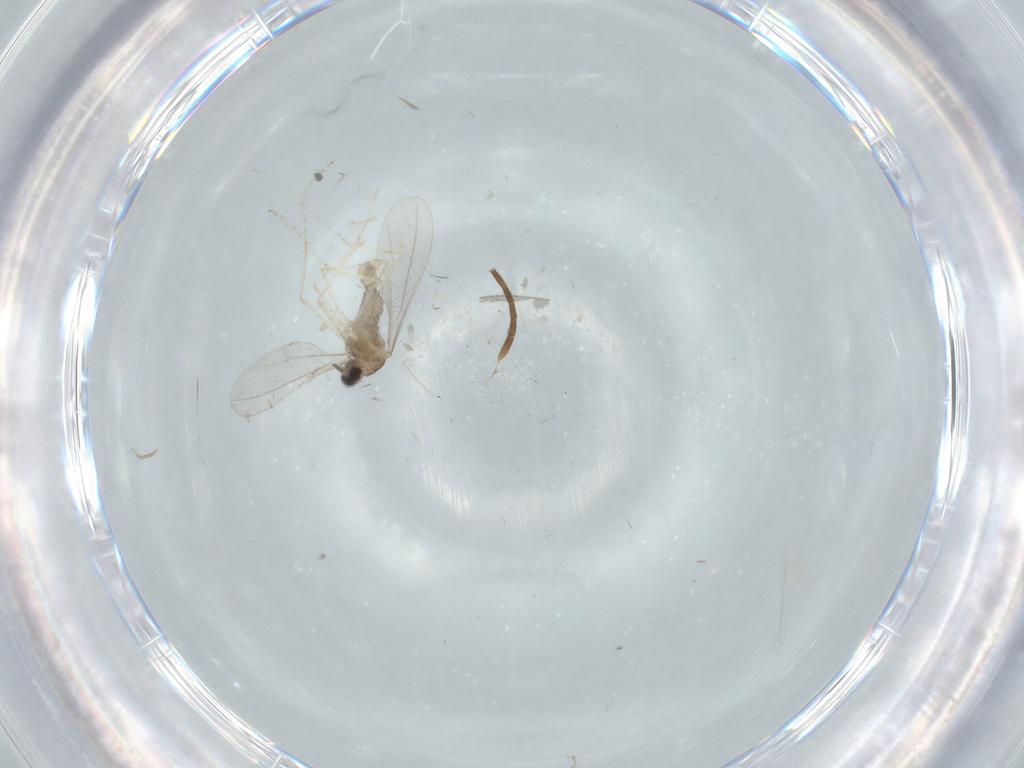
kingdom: Animalia
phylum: Arthropoda
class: Insecta
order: Diptera
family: Cecidomyiidae
